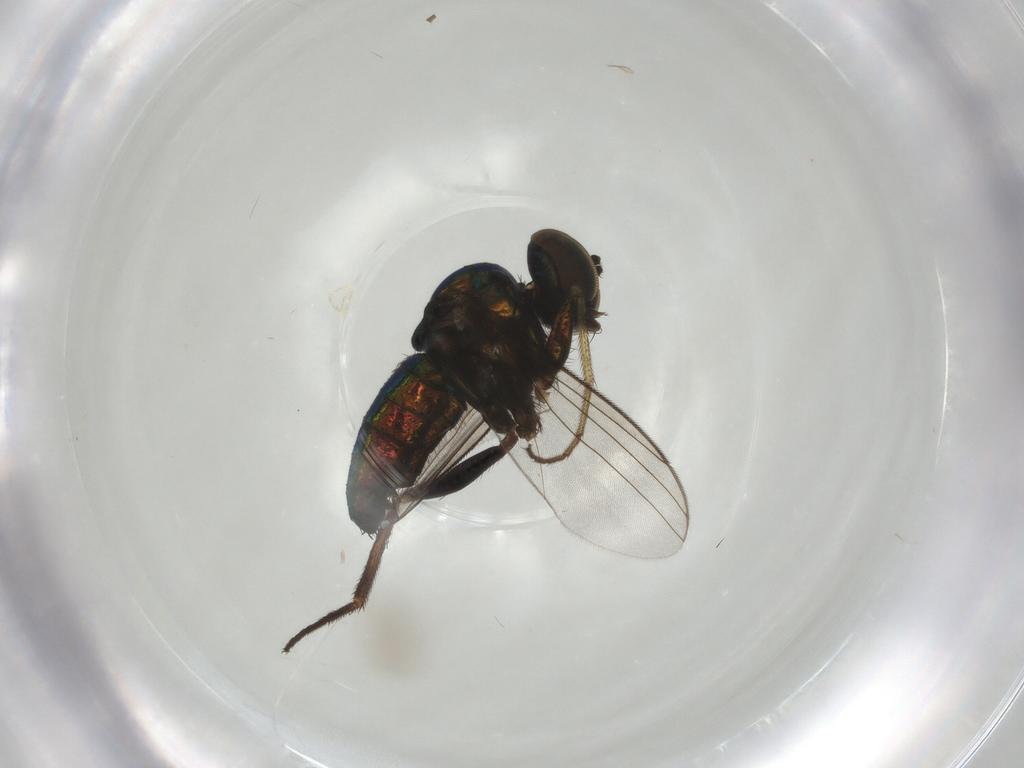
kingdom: Animalia
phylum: Arthropoda
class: Insecta
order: Diptera
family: Dolichopodidae
